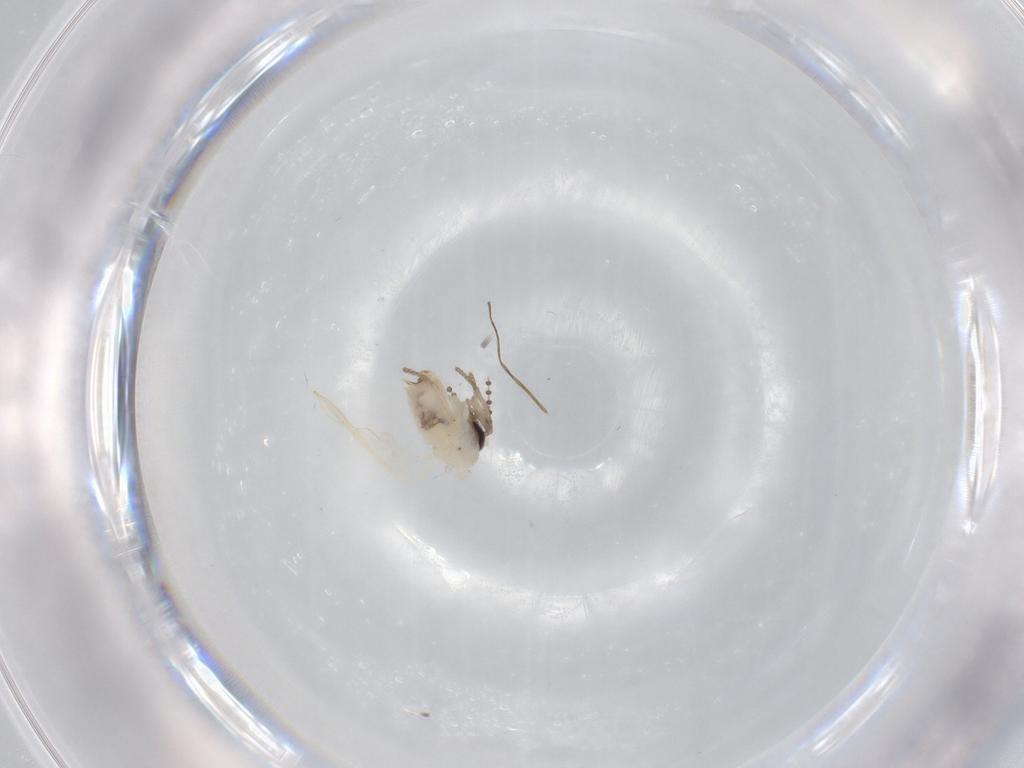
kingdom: Animalia
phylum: Arthropoda
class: Insecta
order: Diptera
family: Psychodidae
